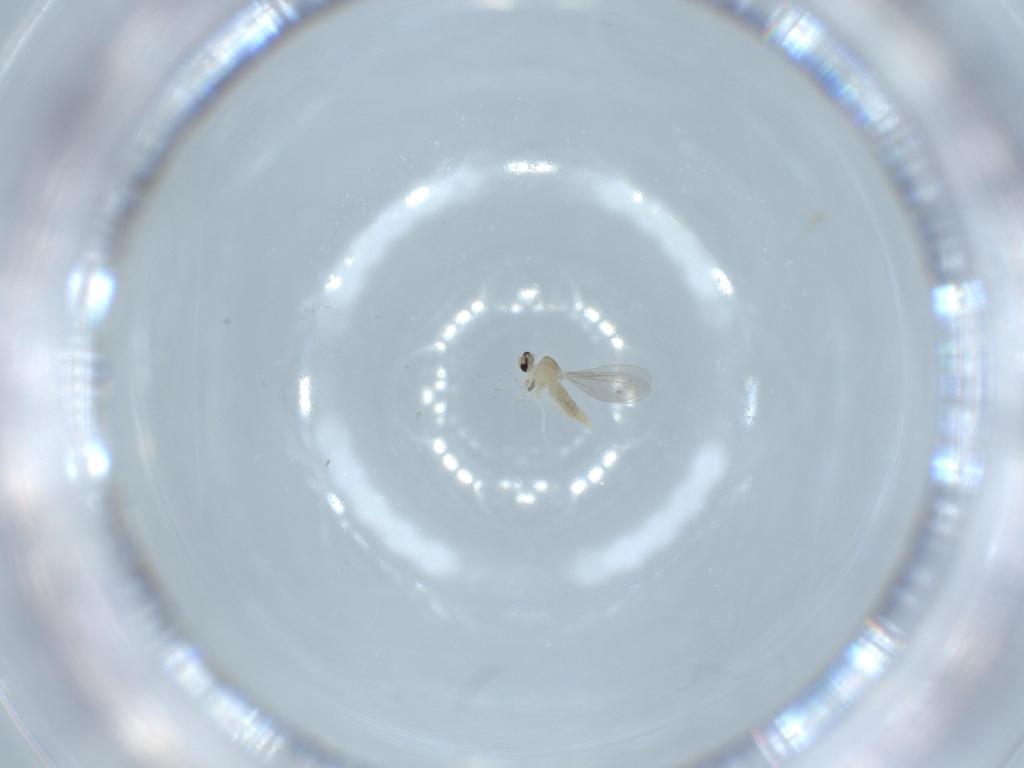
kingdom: Animalia
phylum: Arthropoda
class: Insecta
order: Diptera
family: Cecidomyiidae
